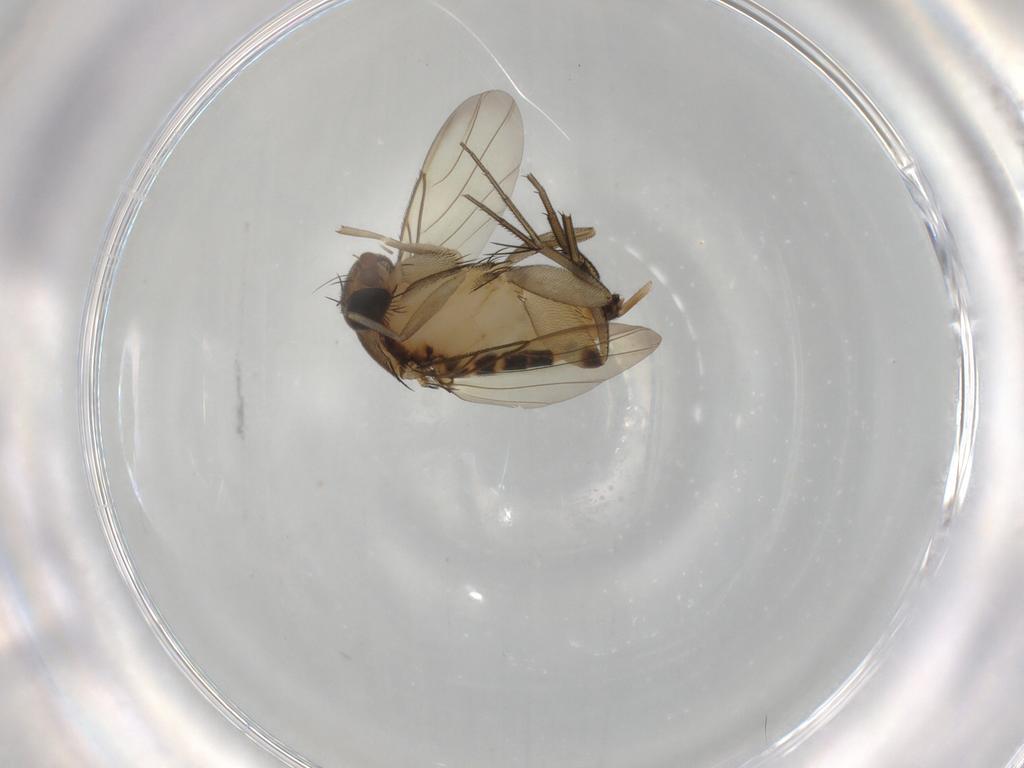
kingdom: Animalia
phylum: Arthropoda
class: Insecta
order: Diptera
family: Phoridae
